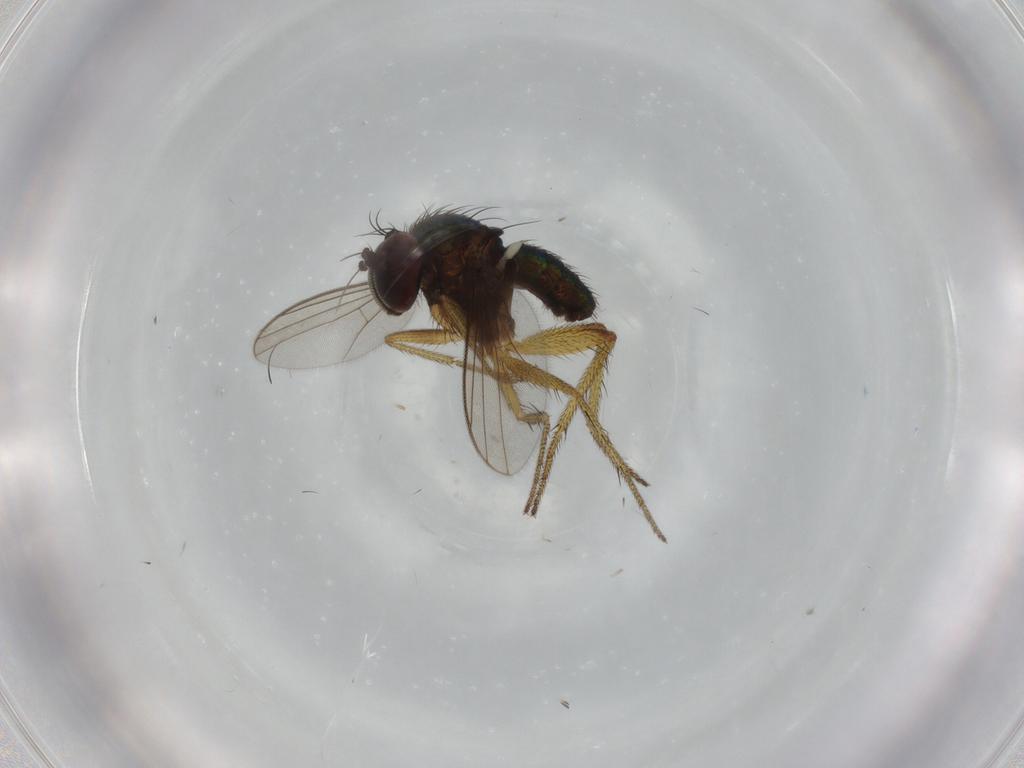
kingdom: Animalia
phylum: Arthropoda
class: Insecta
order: Diptera
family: Dolichopodidae
